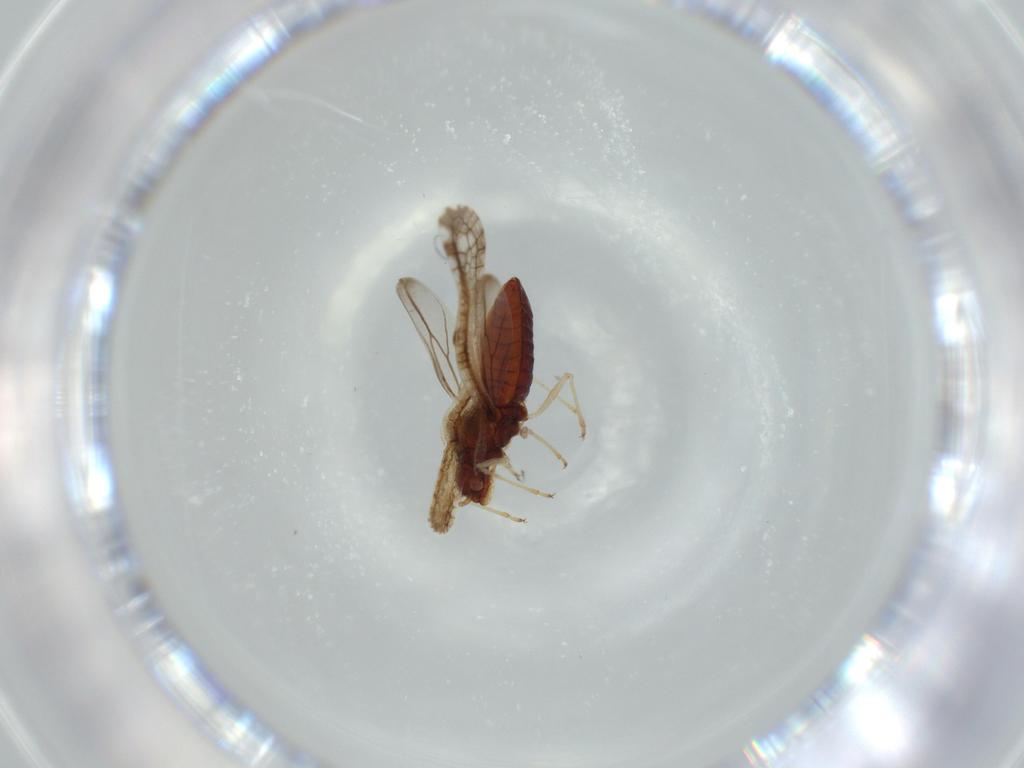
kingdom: Animalia
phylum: Arthropoda
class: Insecta
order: Hemiptera
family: Tingidae
